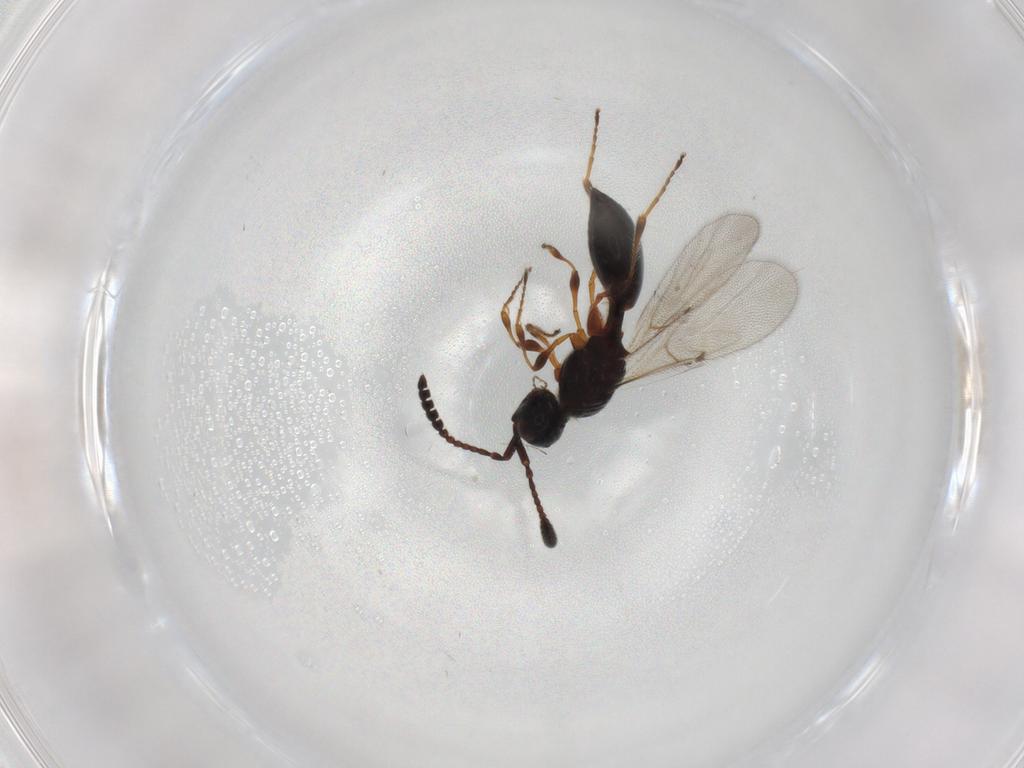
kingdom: Animalia
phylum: Arthropoda
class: Insecta
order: Hymenoptera
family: Diapriidae
